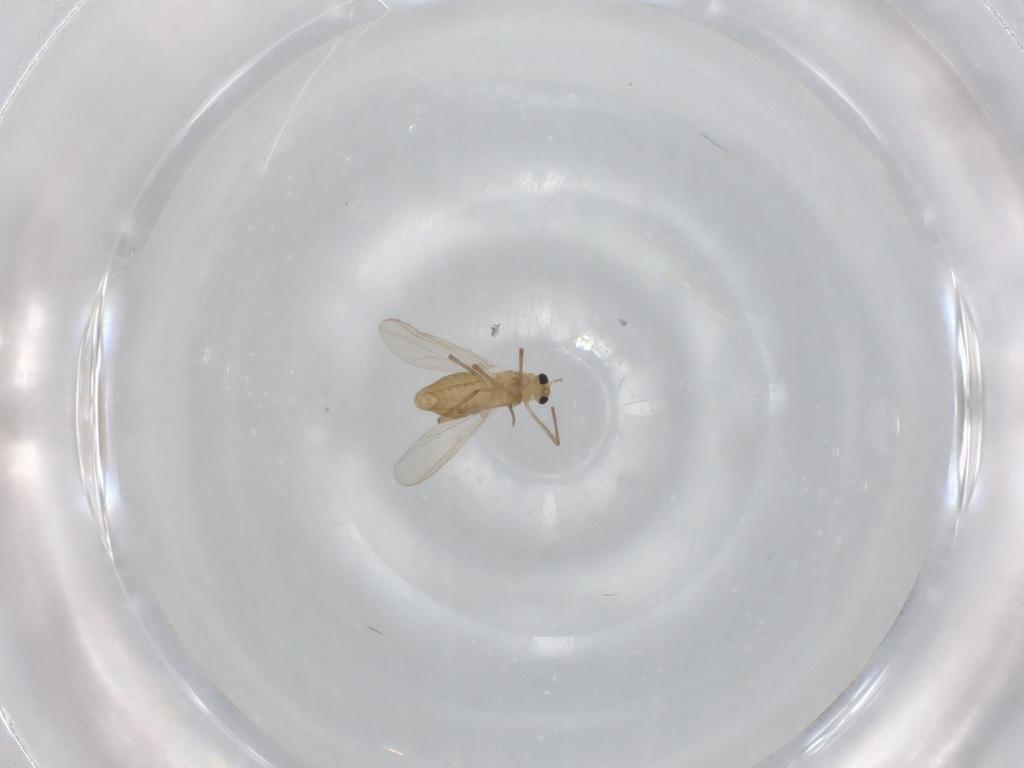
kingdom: Animalia
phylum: Arthropoda
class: Insecta
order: Diptera
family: Chironomidae
